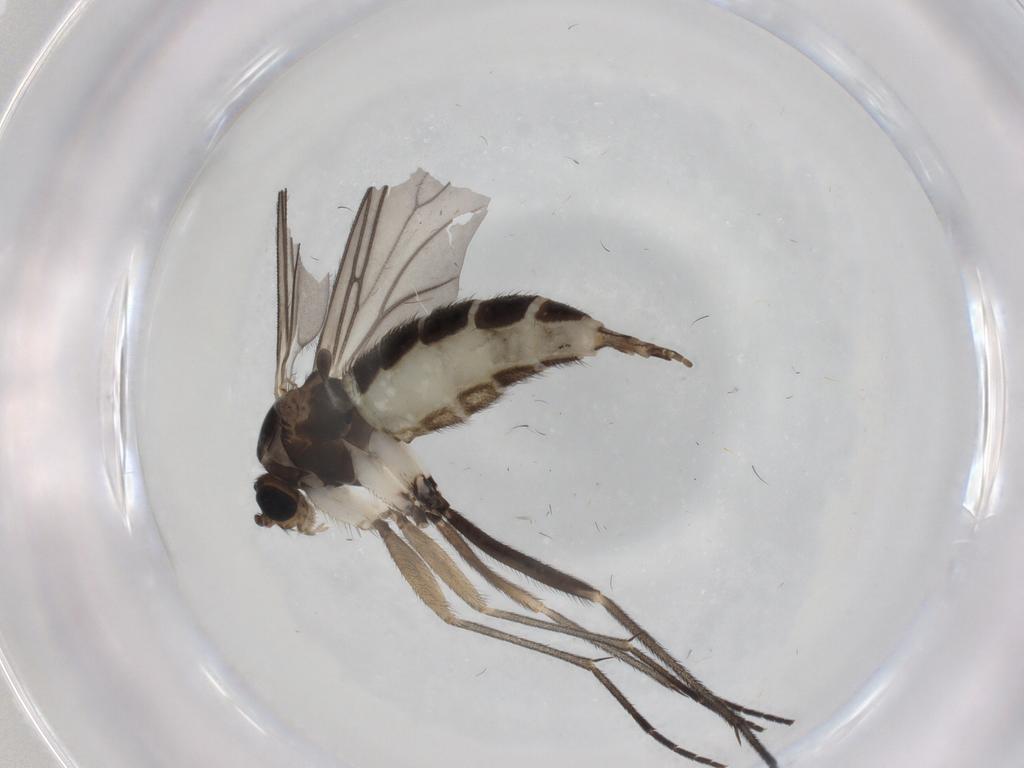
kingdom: Animalia
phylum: Arthropoda
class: Insecta
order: Diptera
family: Sciaridae
